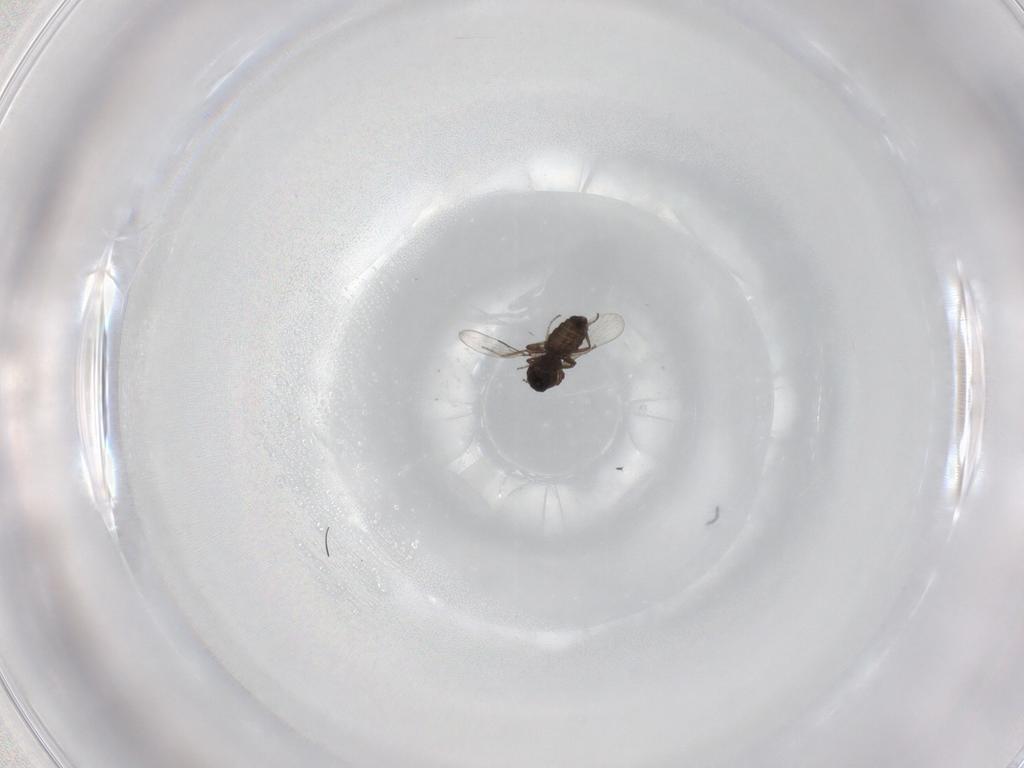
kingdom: Animalia
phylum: Arthropoda
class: Insecta
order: Diptera
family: Ceratopogonidae
